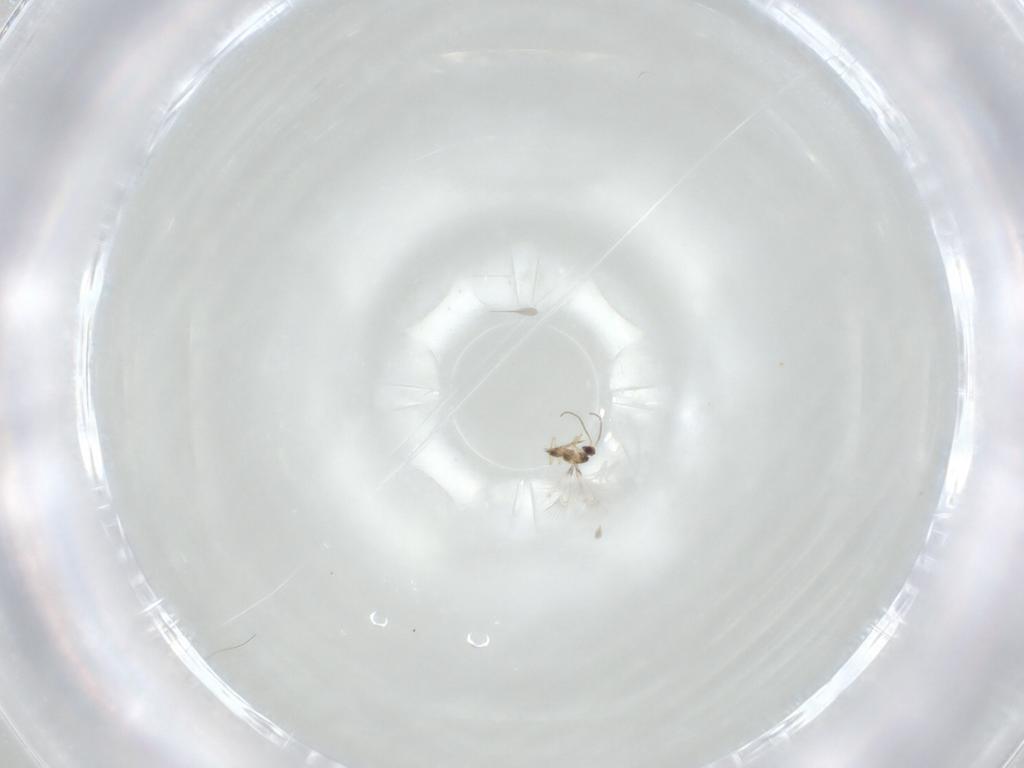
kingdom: Animalia
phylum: Arthropoda
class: Insecta
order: Hymenoptera
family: Mymaridae
